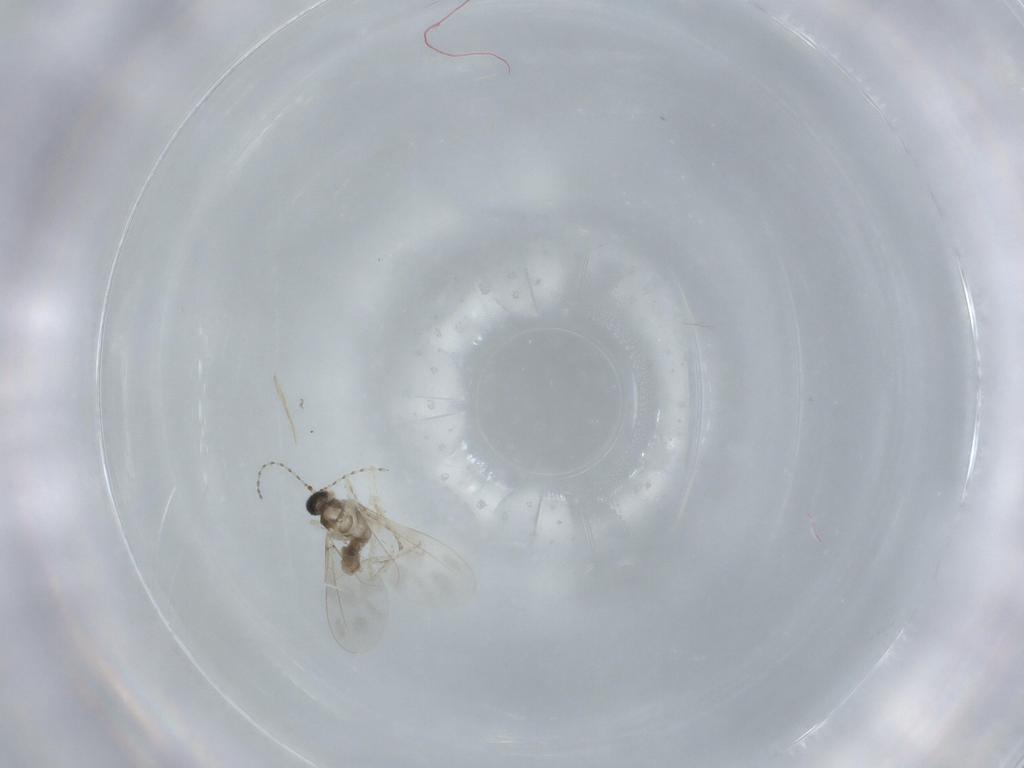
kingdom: Animalia
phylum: Arthropoda
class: Insecta
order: Diptera
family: Cecidomyiidae
